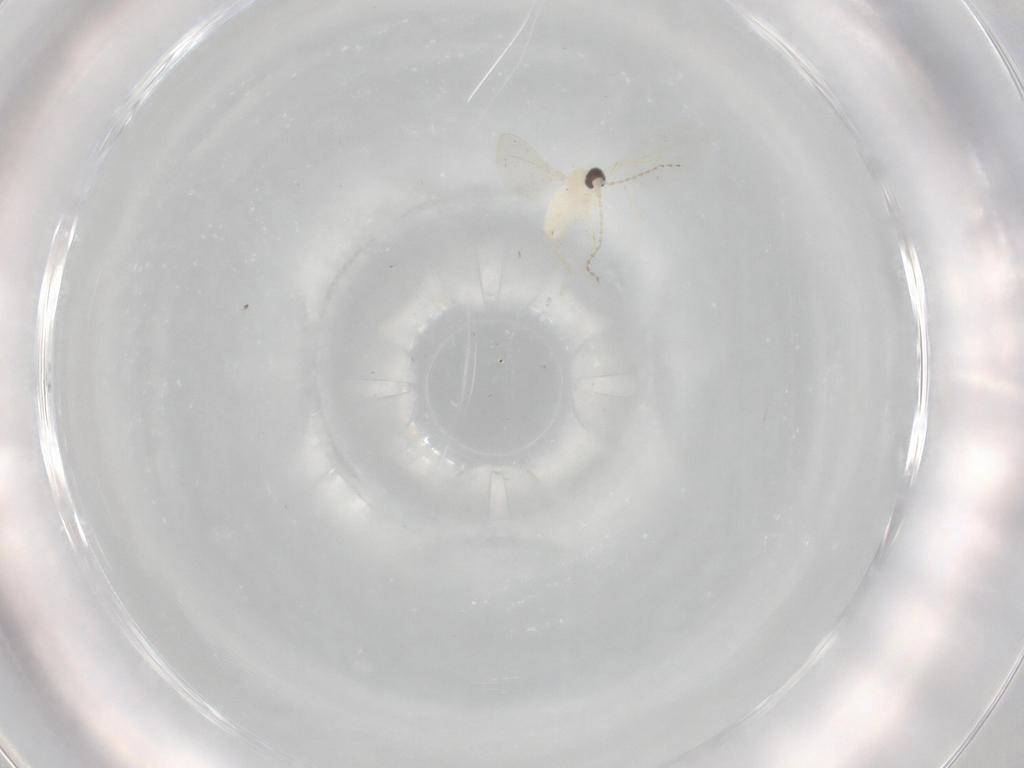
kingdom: Animalia
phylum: Arthropoda
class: Insecta
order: Diptera
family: Cecidomyiidae
